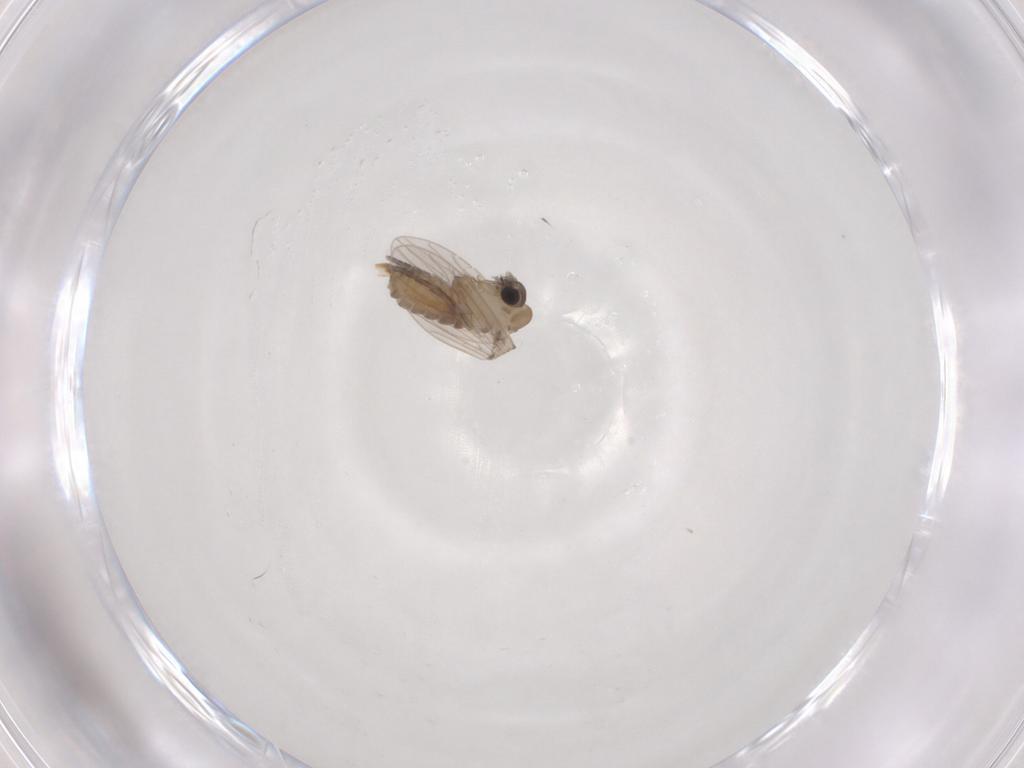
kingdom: Animalia
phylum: Arthropoda
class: Insecta
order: Diptera
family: Psychodidae
